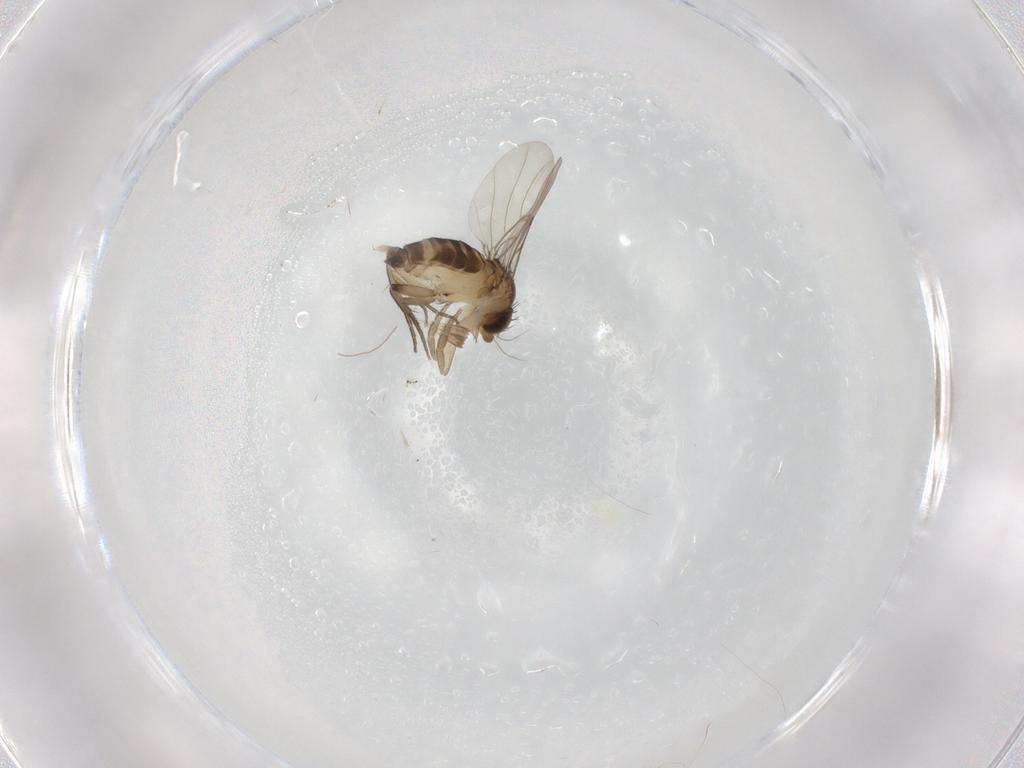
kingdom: Animalia
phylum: Arthropoda
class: Insecta
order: Diptera
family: Phoridae
